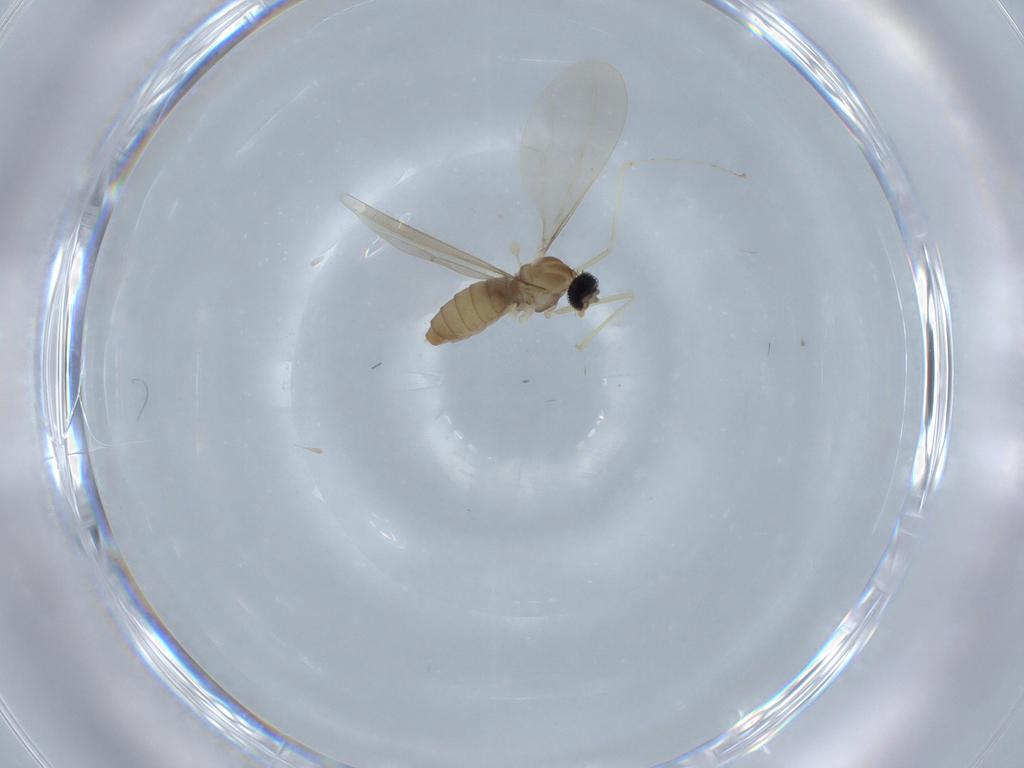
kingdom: Animalia
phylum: Arthropoda
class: Insecta
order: Diptera
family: Cecidomyiidae
